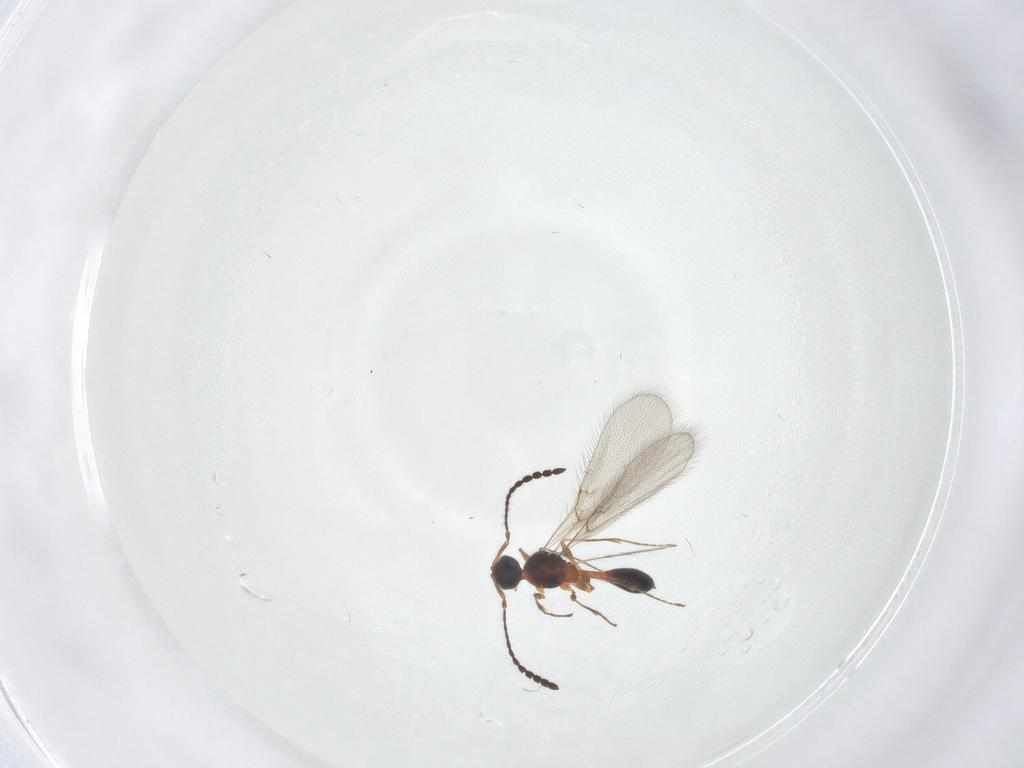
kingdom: Animalia
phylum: Arthropoda
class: Insecta
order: Hymenoptera
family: Diapriidae
